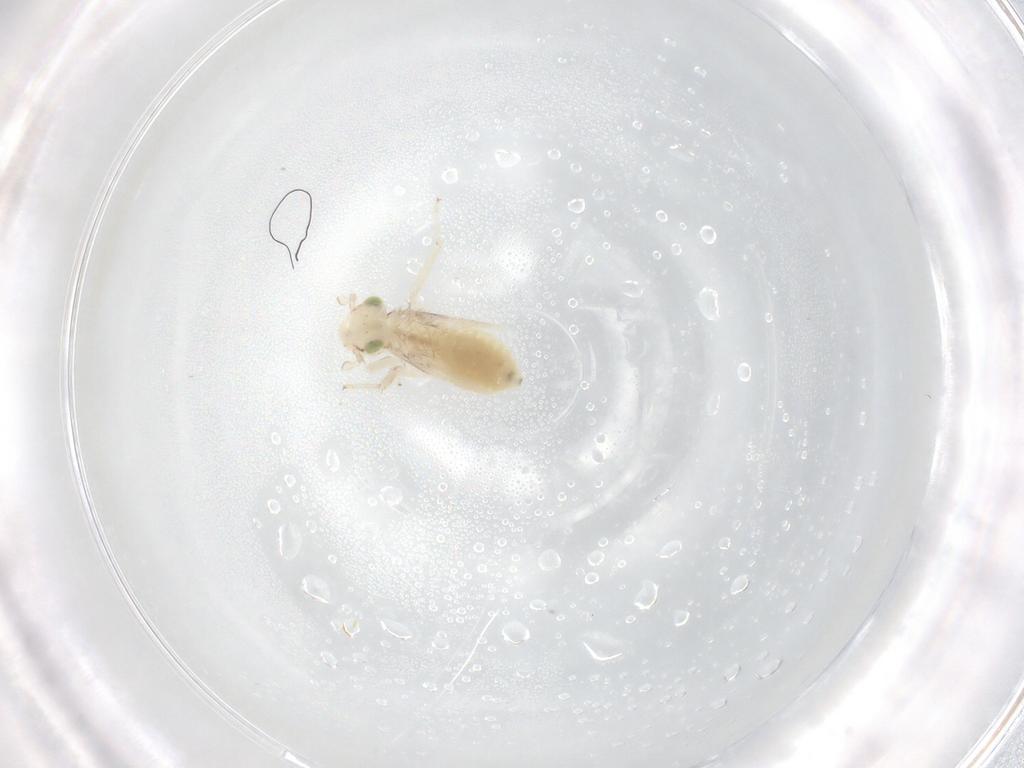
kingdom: Animalia
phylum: Arthropoda
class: Insecta
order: Psocodea
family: Lepidopsocidae
